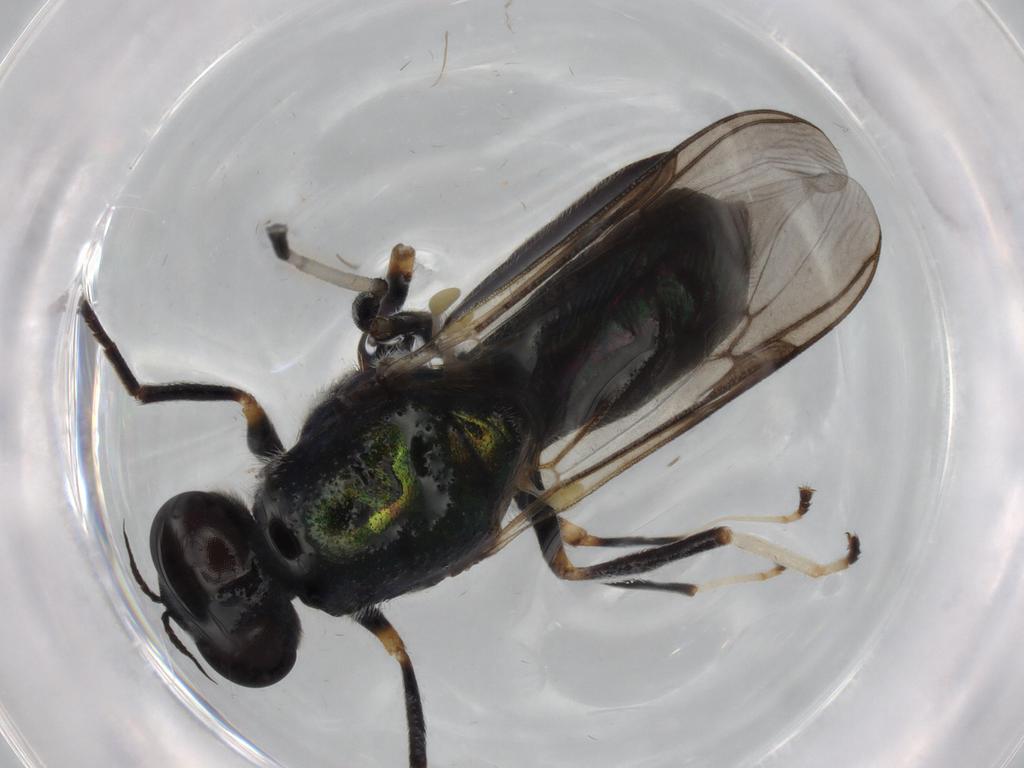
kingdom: Animalia
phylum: Arthropoda
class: Insecta
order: Diptera
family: Dolichopodidae
